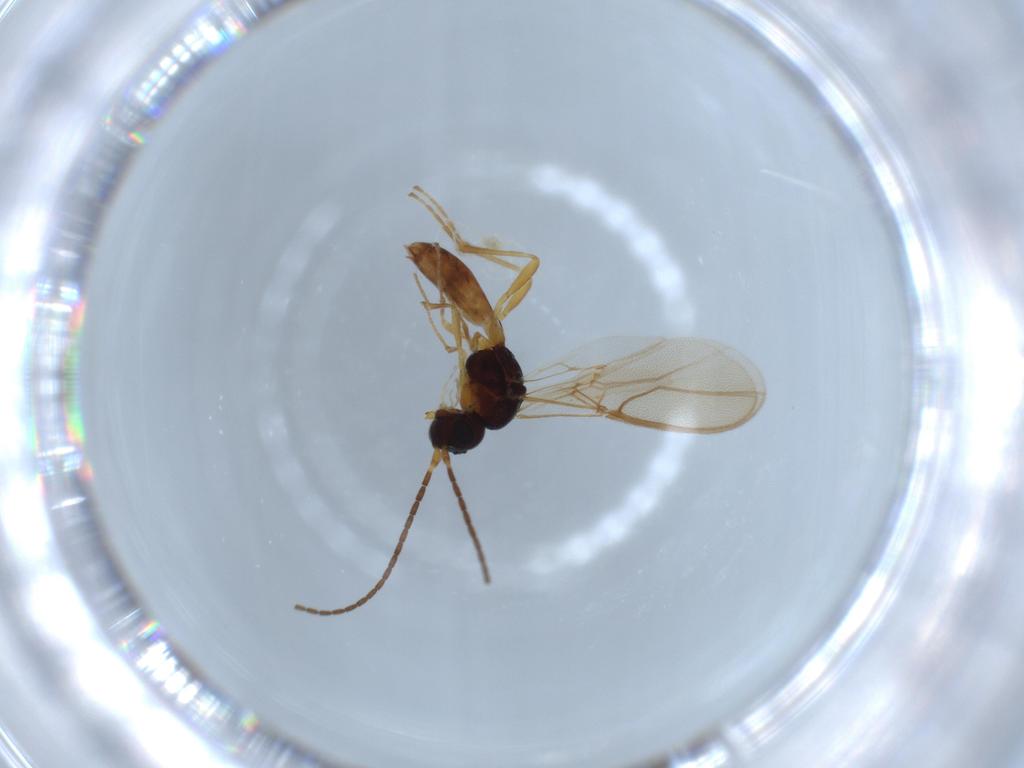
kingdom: Animalia
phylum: Arthropoda
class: Insecta
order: Hymenoptera
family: Braconidae
